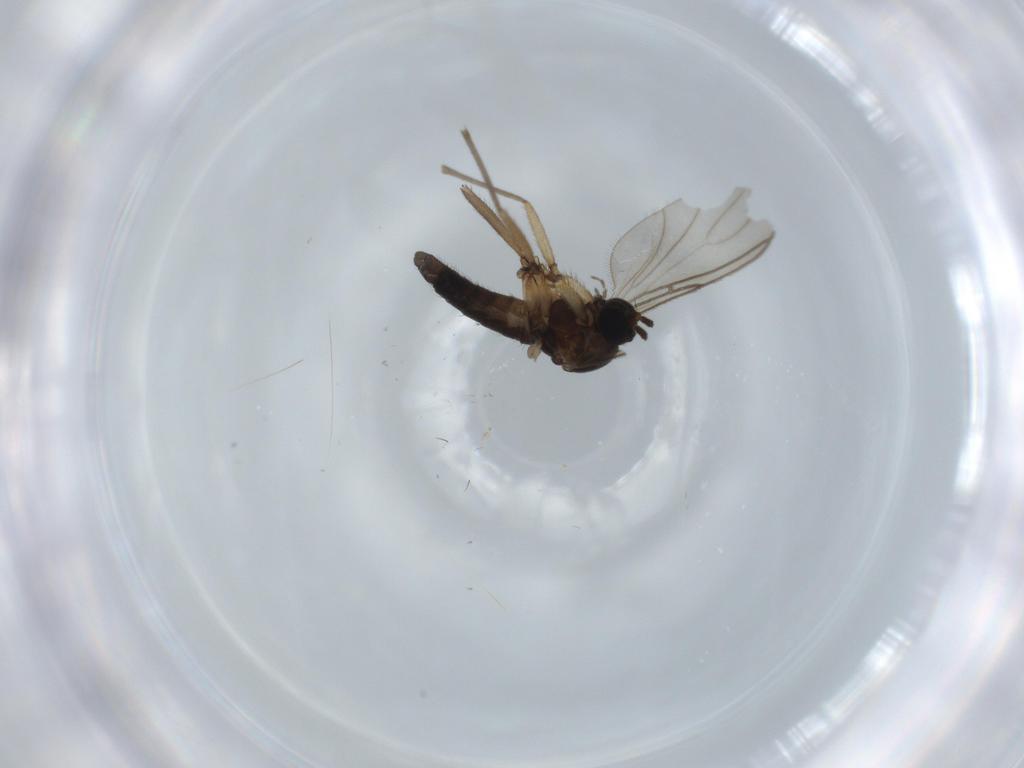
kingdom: Animalia
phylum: Arthropoda
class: Insecta
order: Diptera
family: Sciaridae
